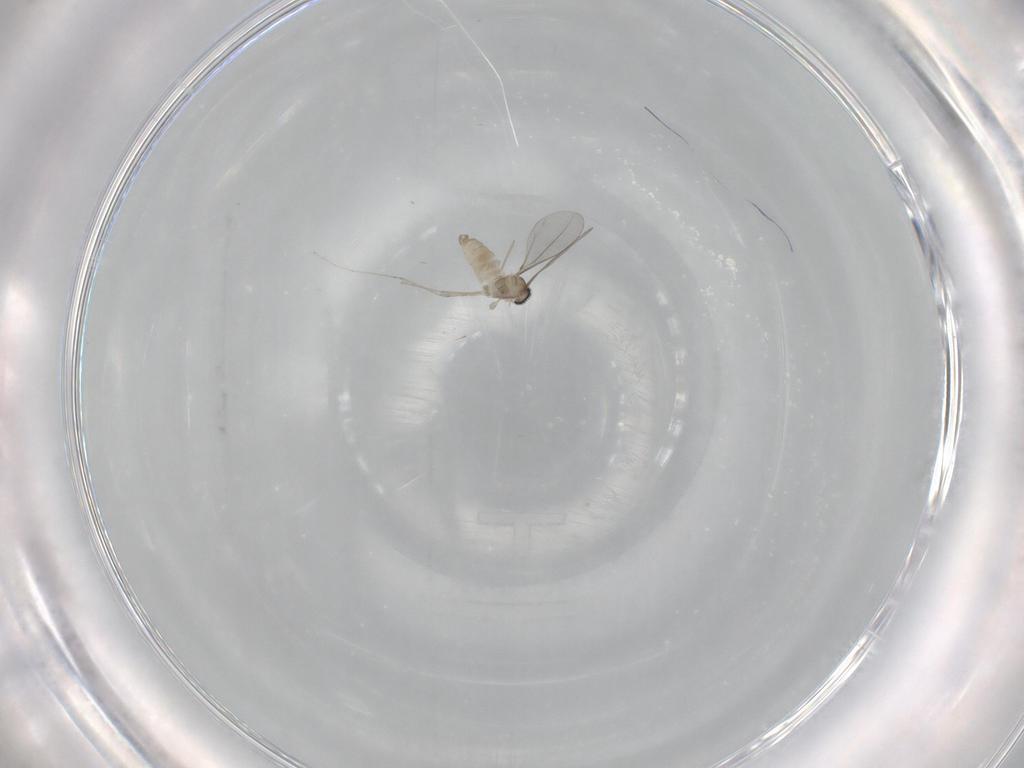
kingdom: Animalia
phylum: Arthropoda
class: Insecta
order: Diptera
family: Cecidomyiidae
